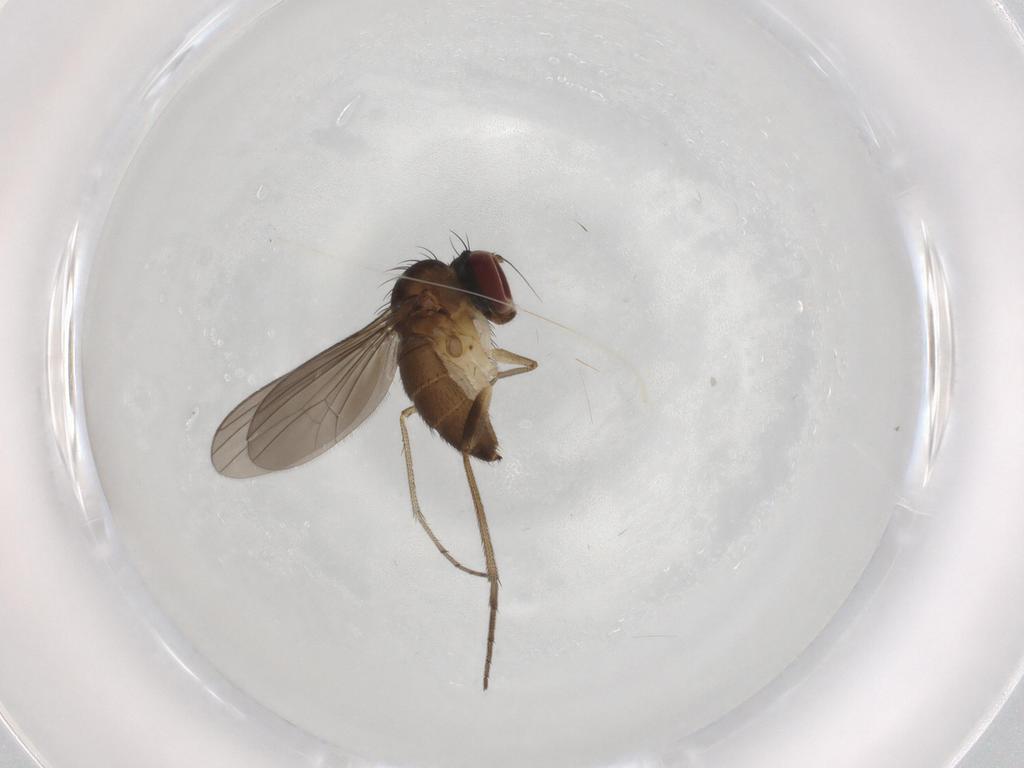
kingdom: Animalia
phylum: Arthropoda
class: Insecta
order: Diptera
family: Dolichopodidae
